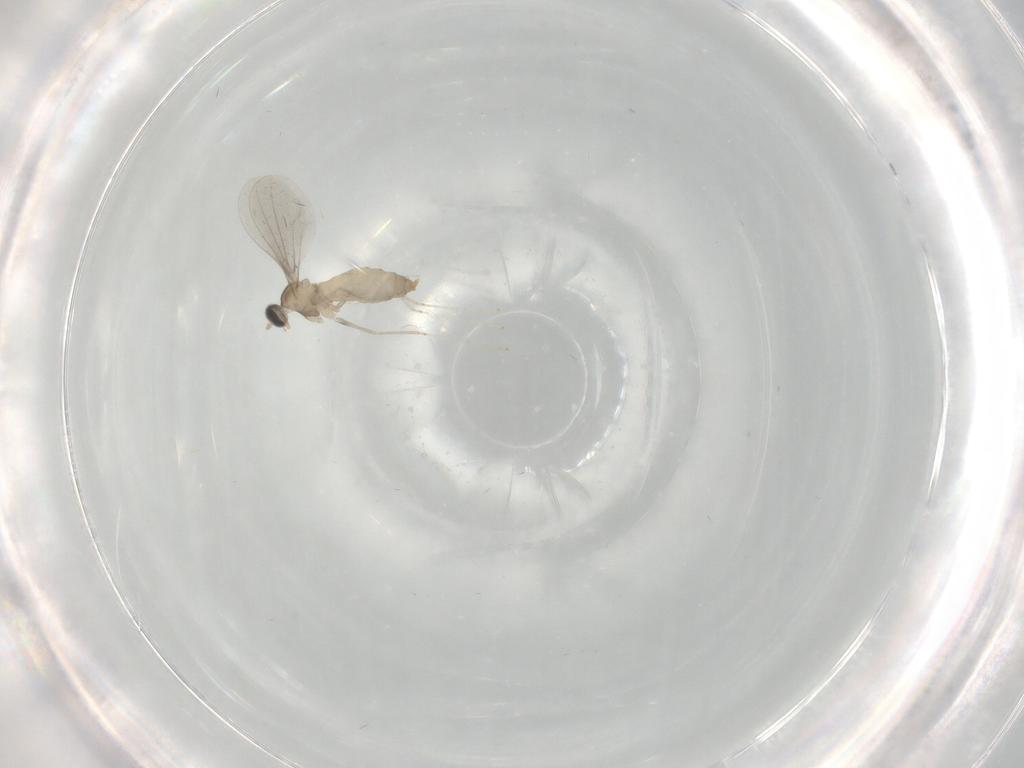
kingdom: Animalia
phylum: Arthropoda
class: Insecta
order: Diptera
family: Cecidomyiidae
